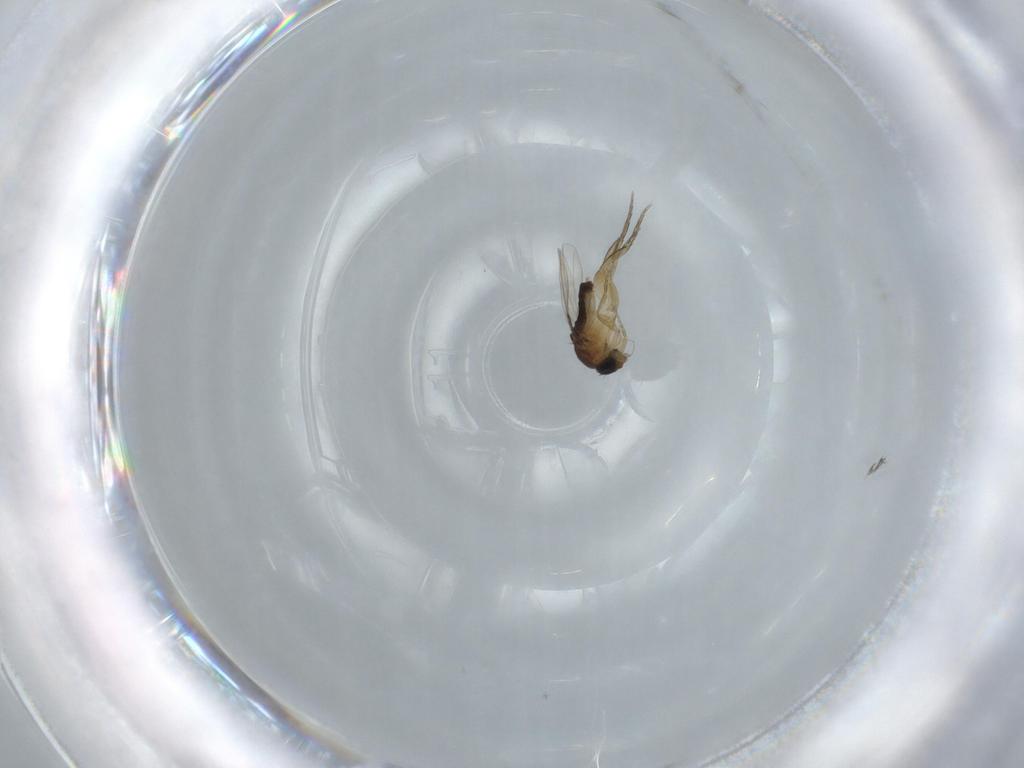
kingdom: Animalia
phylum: Arthropoda
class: Insecta
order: Diptera
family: Phoridae
